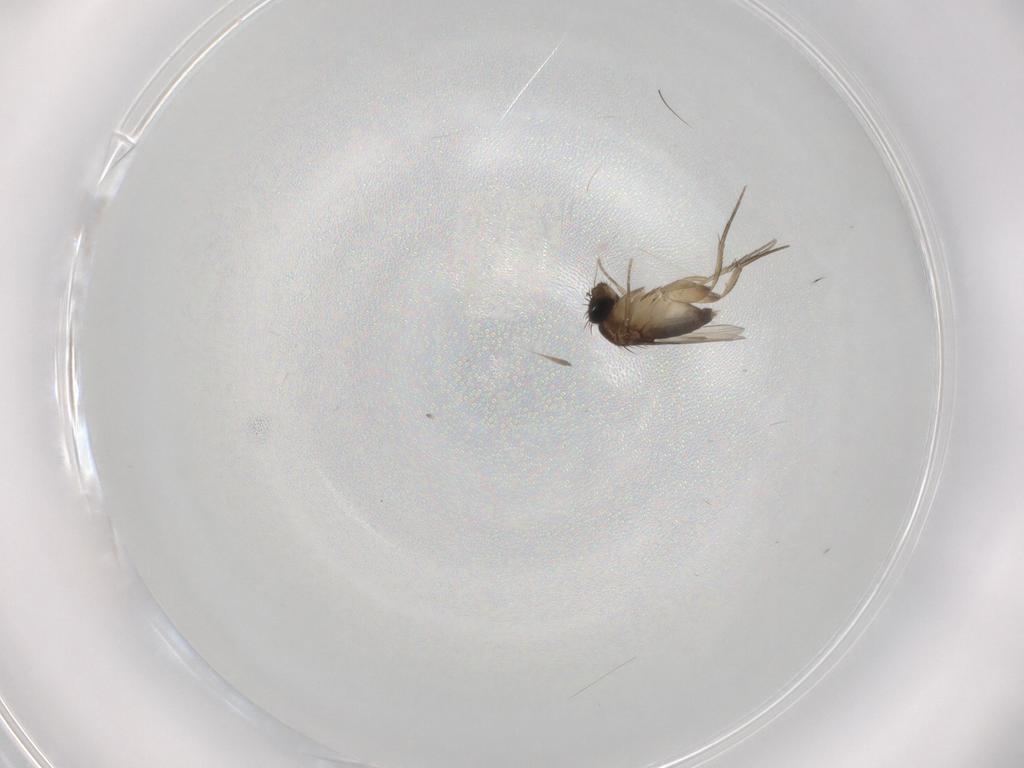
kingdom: Animalia
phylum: Arthropoda
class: Insecta
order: Diptera
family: Phoridae
